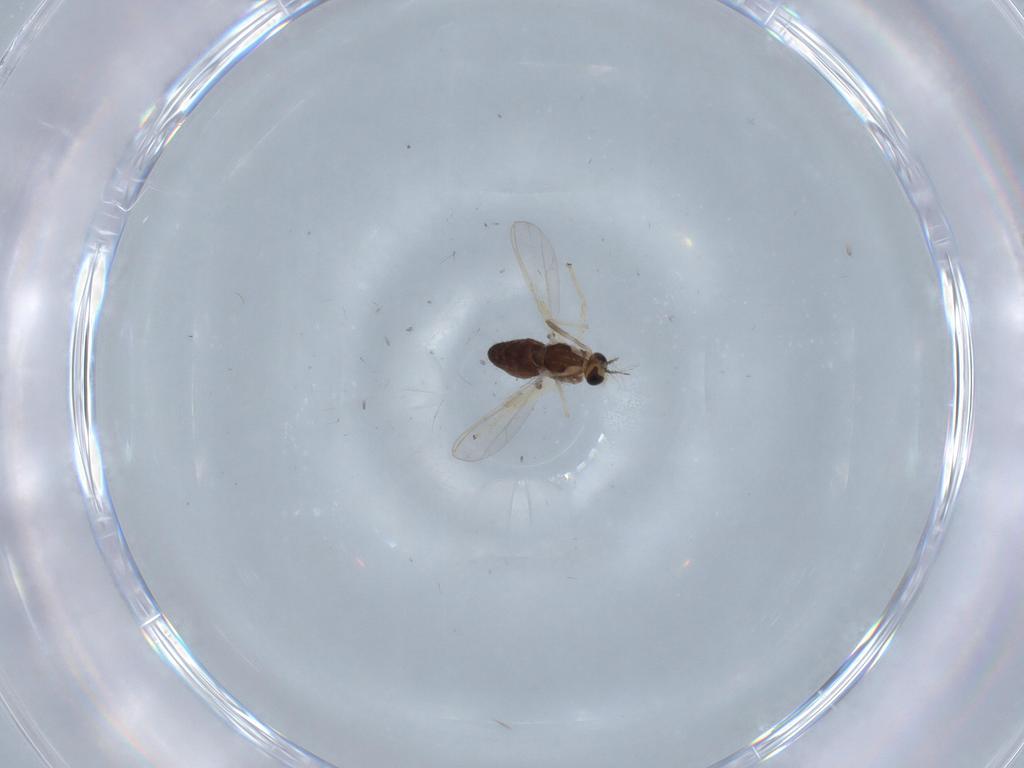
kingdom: Animalia
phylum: Arthropoda
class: Insecta
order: Diptera
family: Chironomidae
